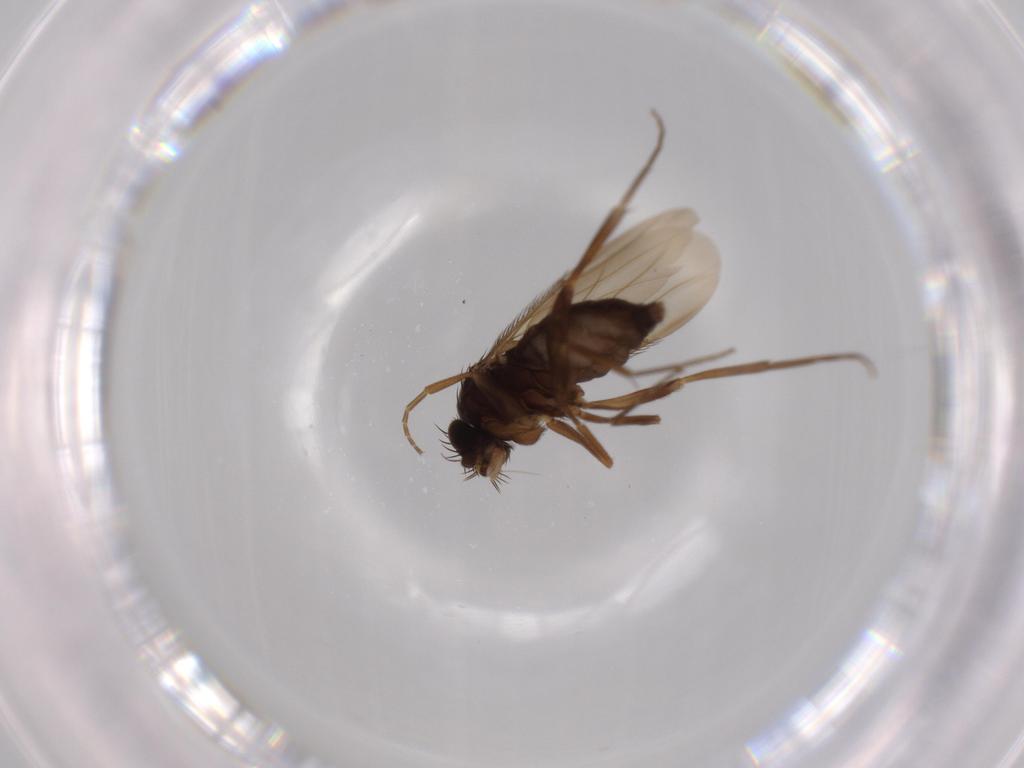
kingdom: Animalia
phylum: Arthropoda
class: Insecta
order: Diptera
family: Phoridae
